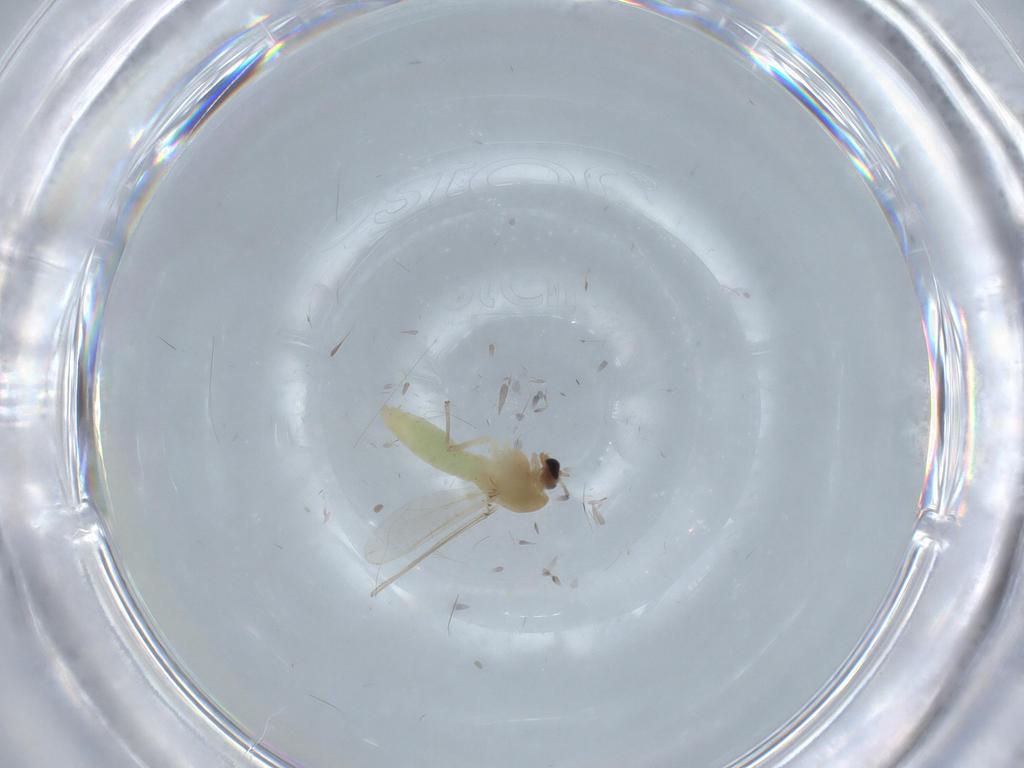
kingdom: Animalia
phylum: Arthropoda
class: Insecta
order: Diptera
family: Chironomidae
